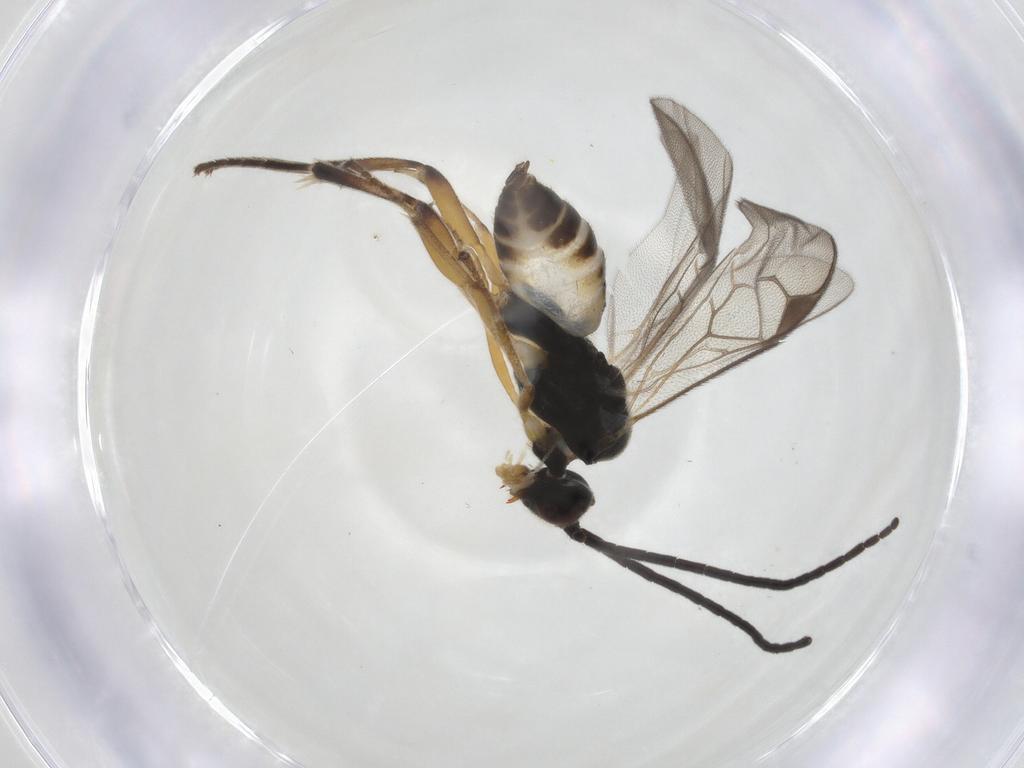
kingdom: Animalia
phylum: Arthropoda
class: Insecta
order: Hymenoptera
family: Braconidae
